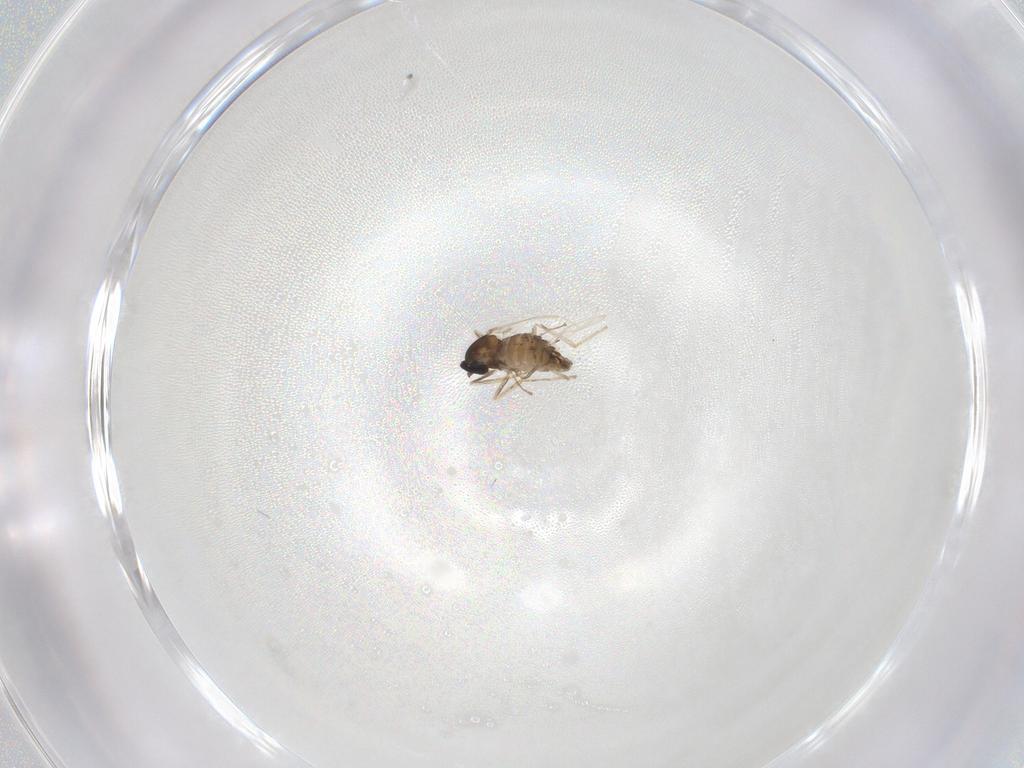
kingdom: Animalia
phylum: Arthropoda
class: Insecta
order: Diptera
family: Cecidomyiidae
